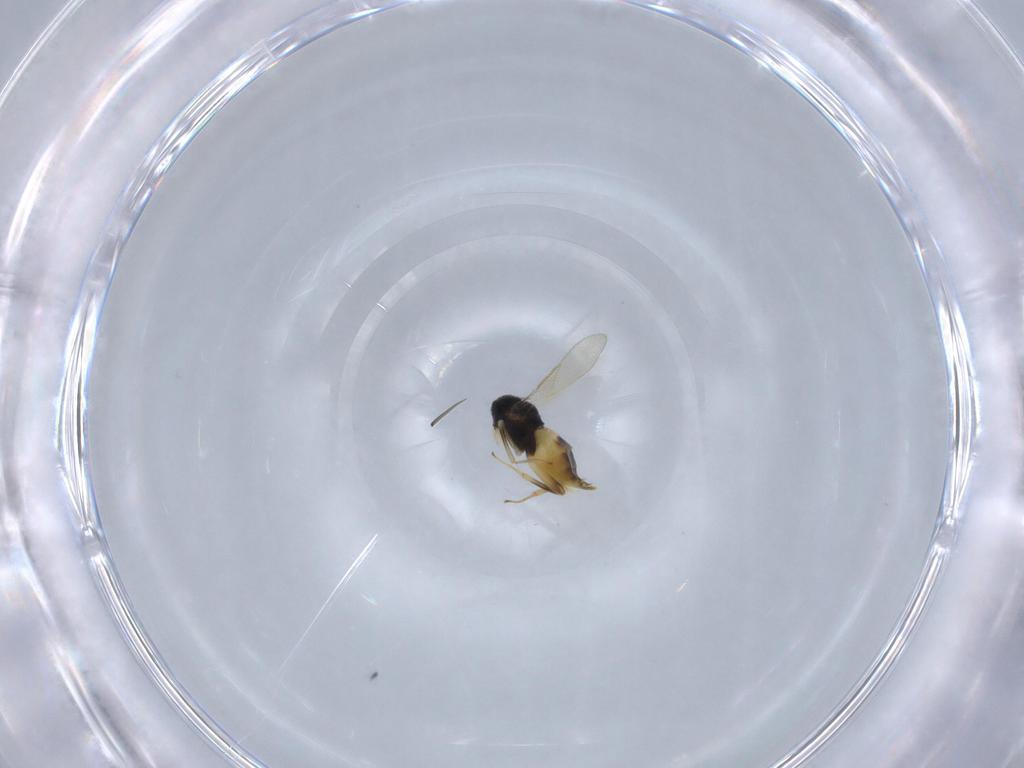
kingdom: Animalia
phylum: Arthropoda
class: Insecta
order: Hymenoptera
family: Aphelinidae
